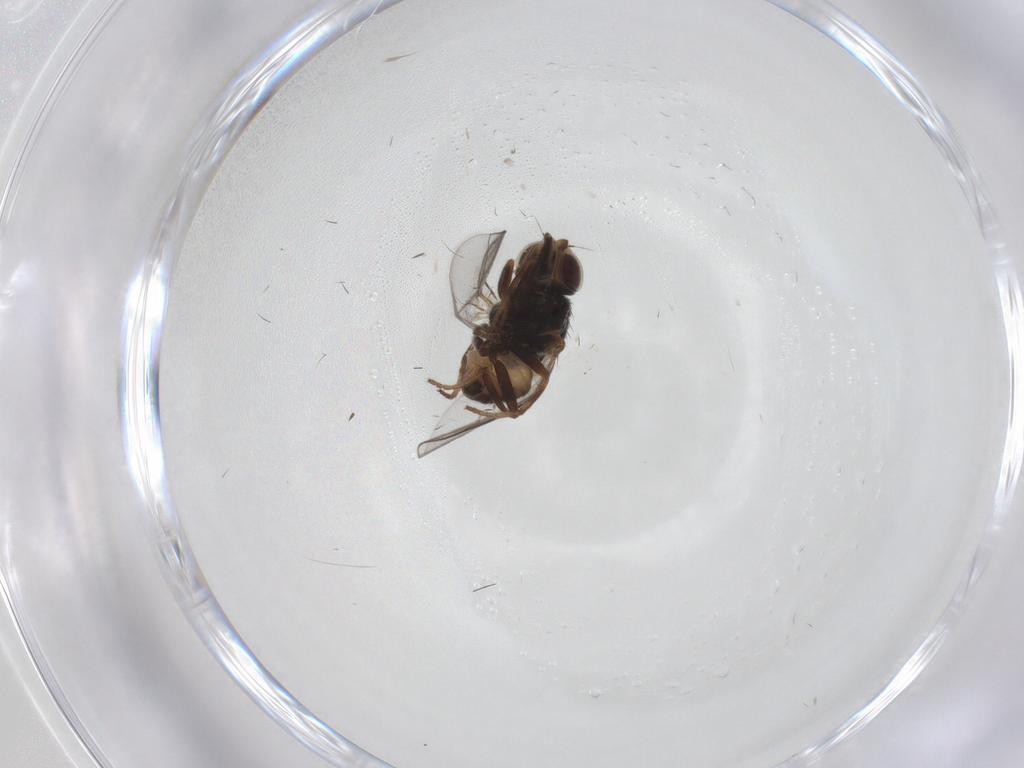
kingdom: Animalia
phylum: Arthropoda
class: Insecta
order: Diptera
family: Chloropidae
